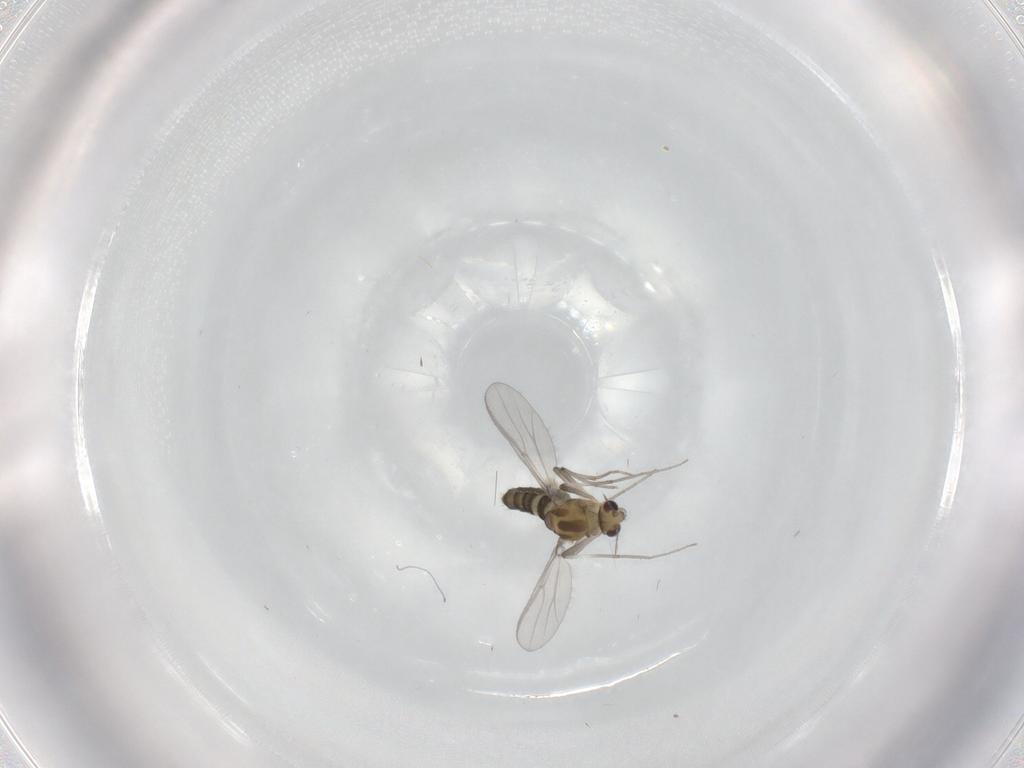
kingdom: Animalia
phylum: Arthropoda
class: Insecta
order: Diptera
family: Chironomidae
